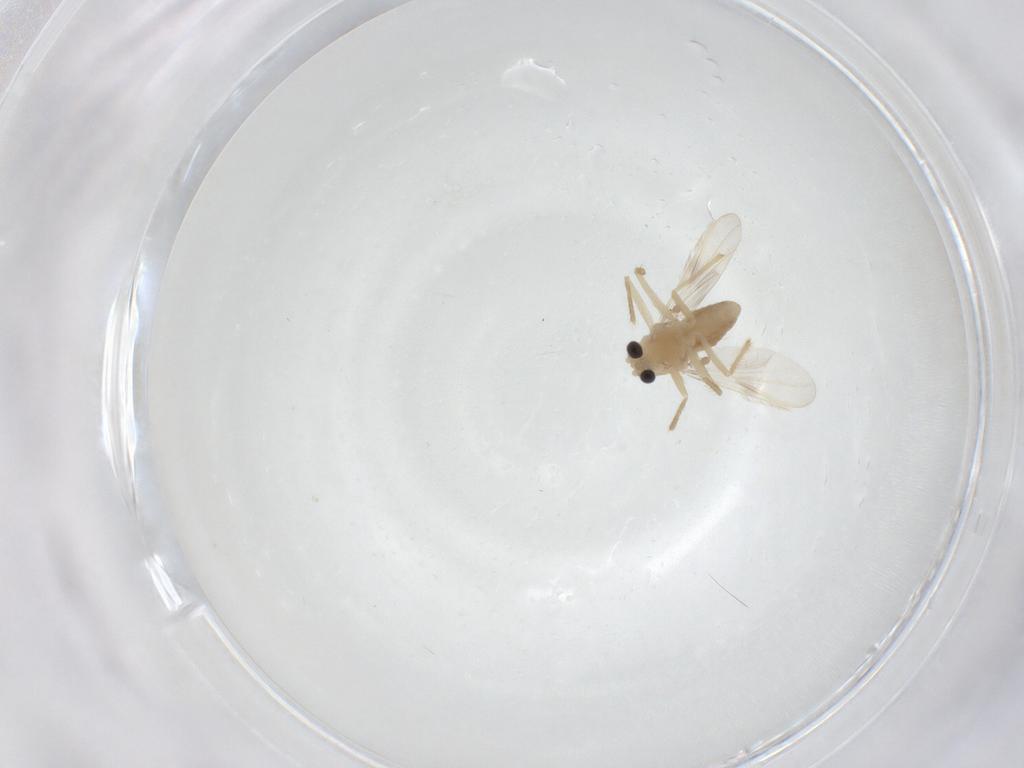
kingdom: Animalia
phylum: Arthropoda
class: Insecta
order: Diptera
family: Chironomidae
